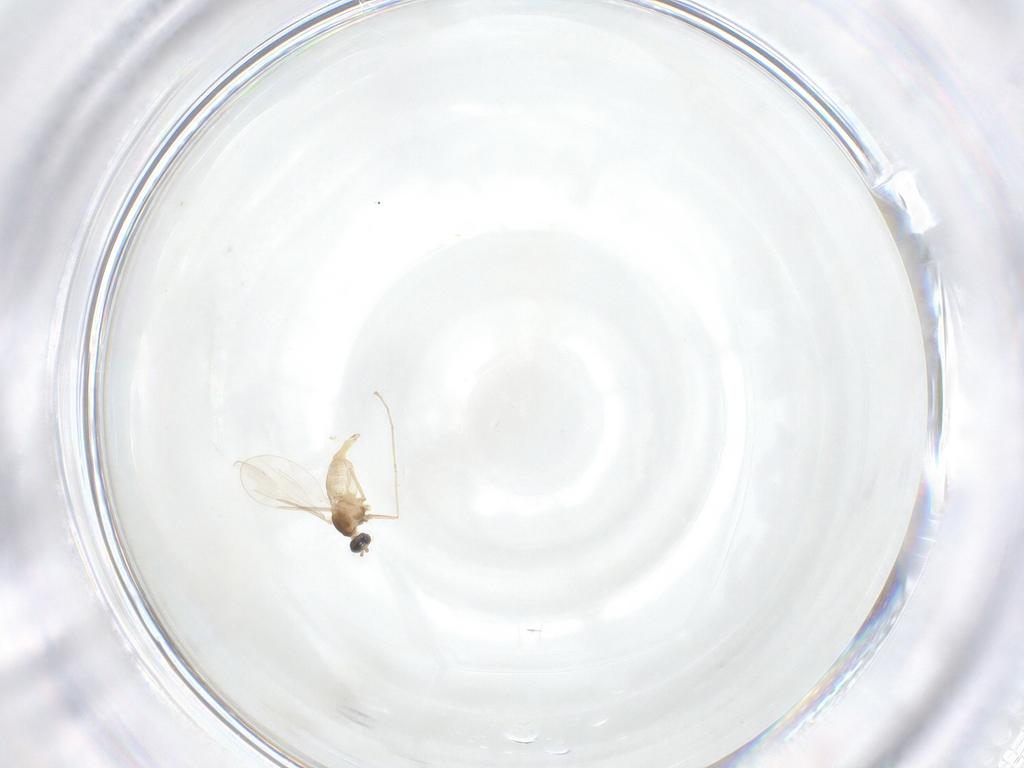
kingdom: Animalia
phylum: Arthropoda
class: Insecta
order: Diptera
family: Cecidomyiidae
